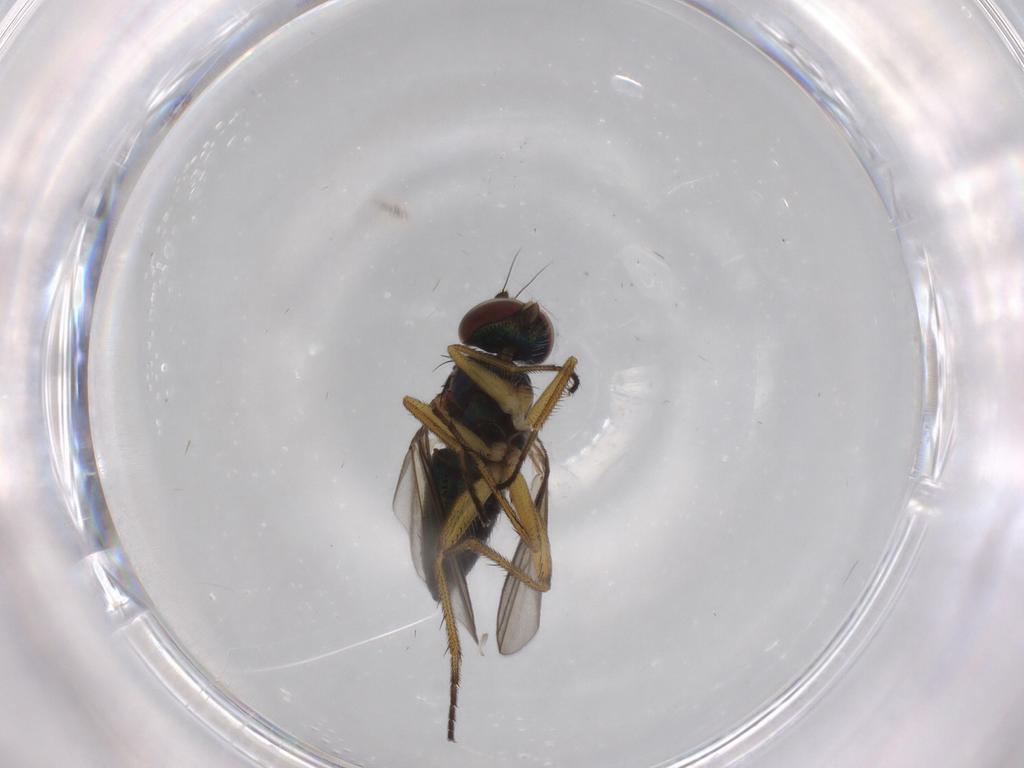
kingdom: Animalia
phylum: Arthropoda
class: Insecta
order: Diptera
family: Dolichopodidae
